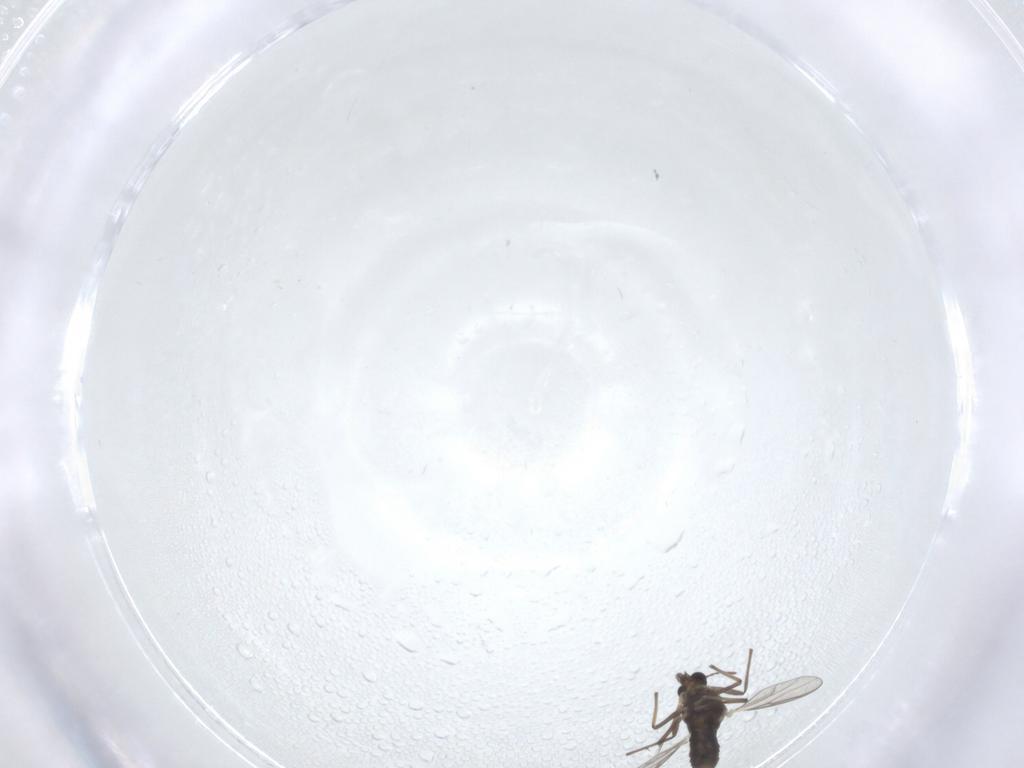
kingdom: Animalia
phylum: Arthropoda
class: Insecta
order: Diptera
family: Chironomidae
